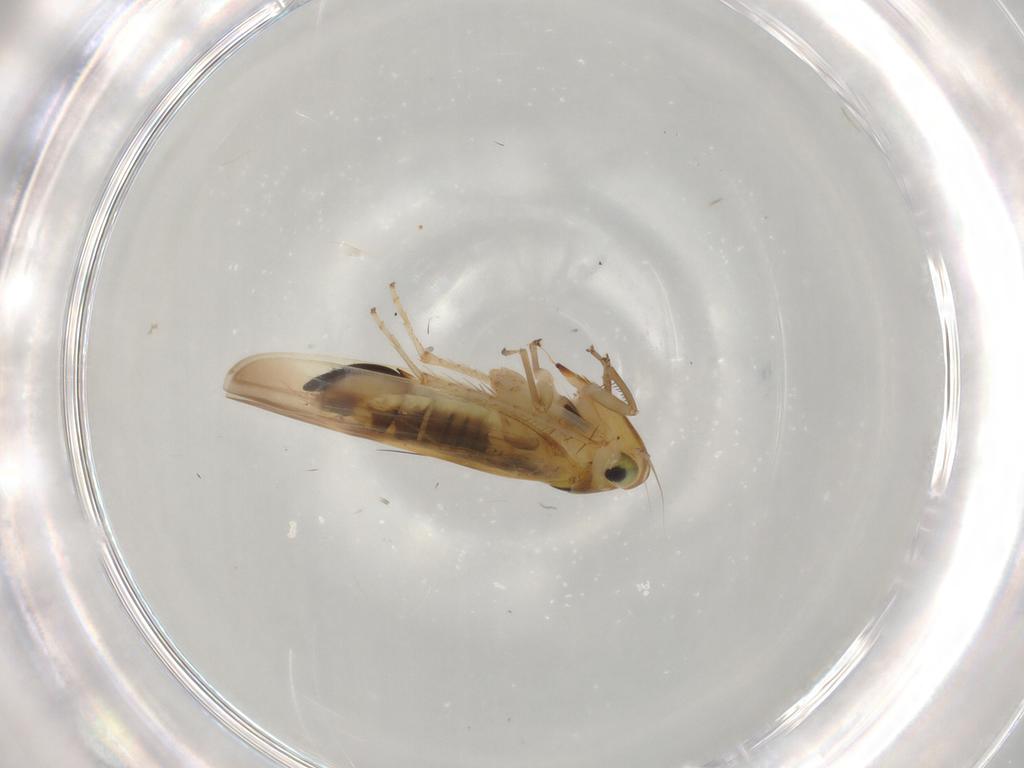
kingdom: Animalia
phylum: Arthropoda
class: Insecta
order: Hemiptera
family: Cicadellidae
